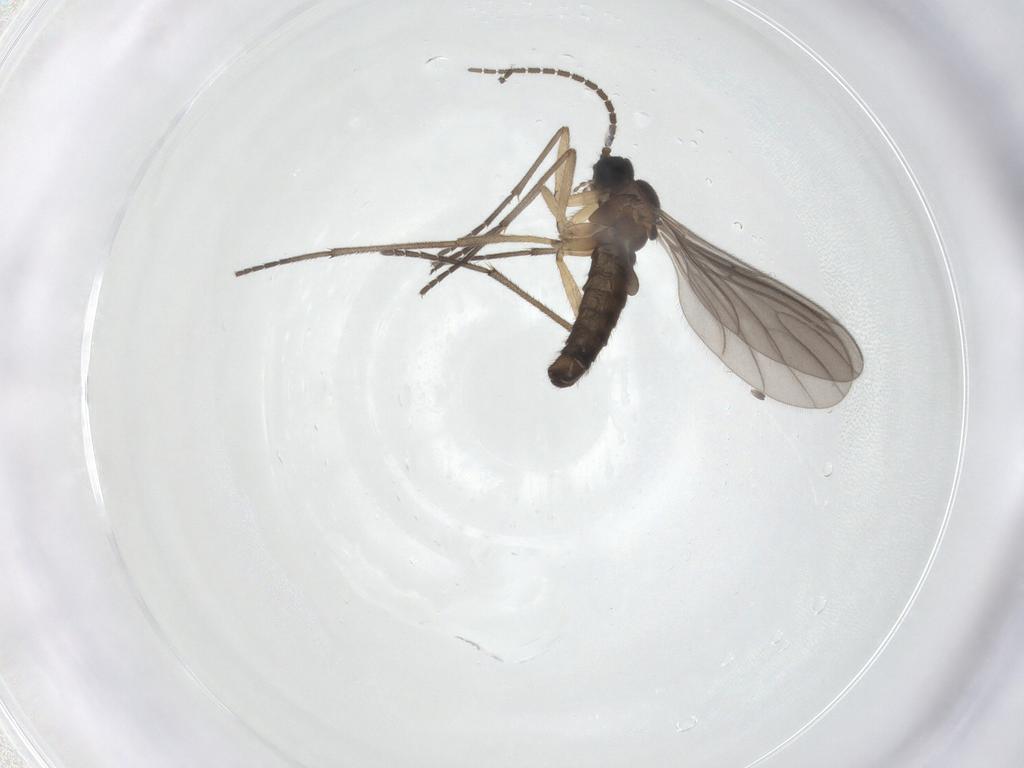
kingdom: Animalia
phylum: Arthropoda
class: Insecta
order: Diptera
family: Sciaridae
